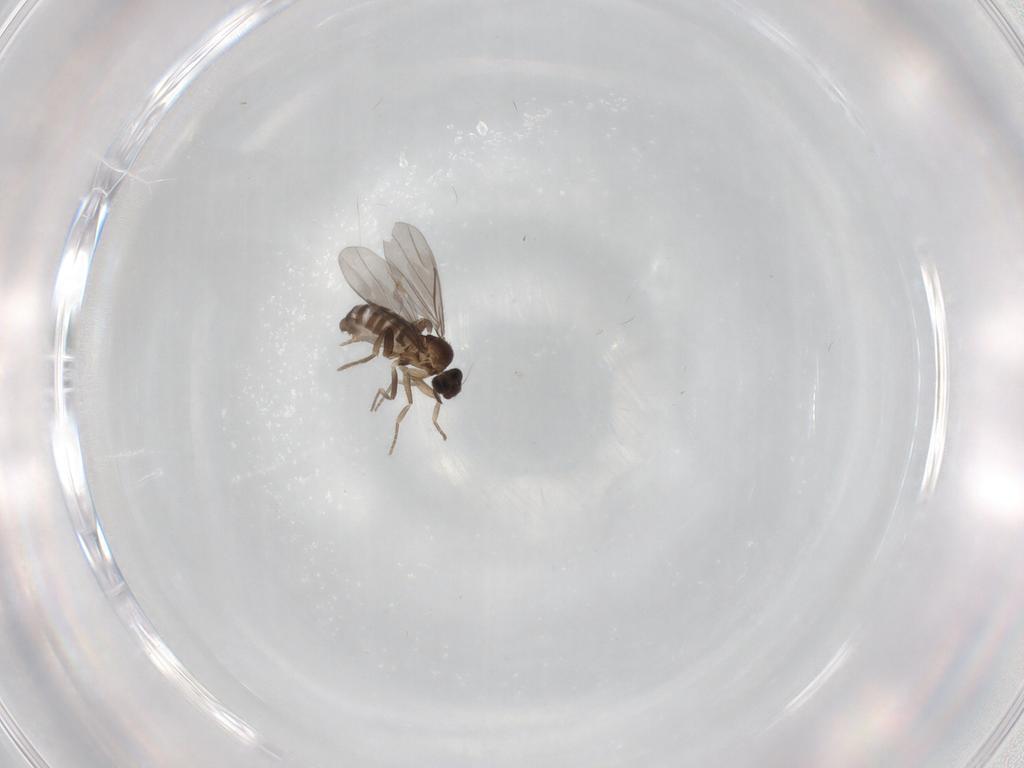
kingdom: Animalia
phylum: Arthropoda
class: Insecta
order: Diptera
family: Phoridae
